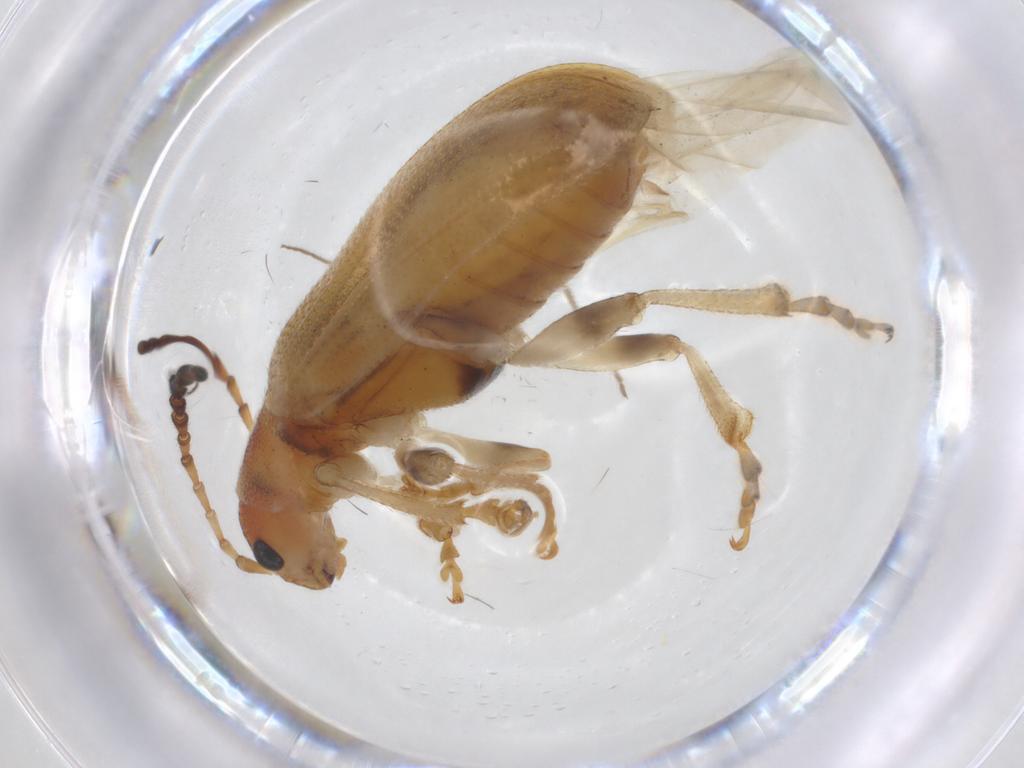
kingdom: Animalia
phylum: Arthropoda
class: Insecta
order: Coleoptera
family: Chrysomelidae
